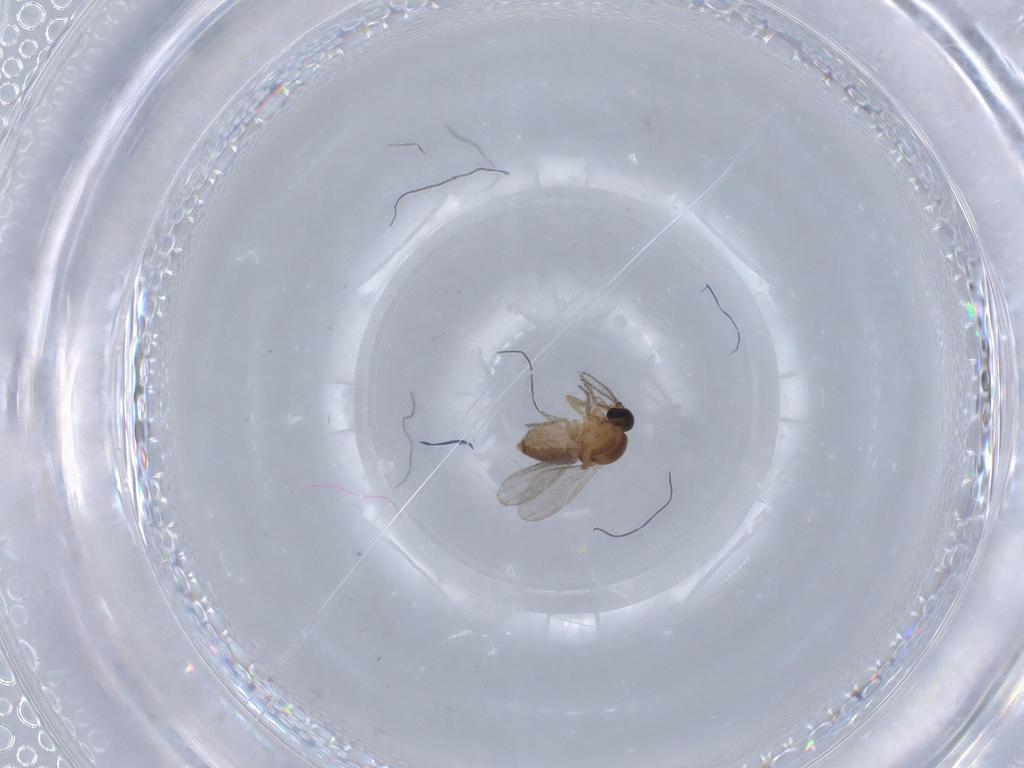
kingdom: Animalia
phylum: Arthropoda
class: Insecta
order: Diptera
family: Ceratopogonidae
